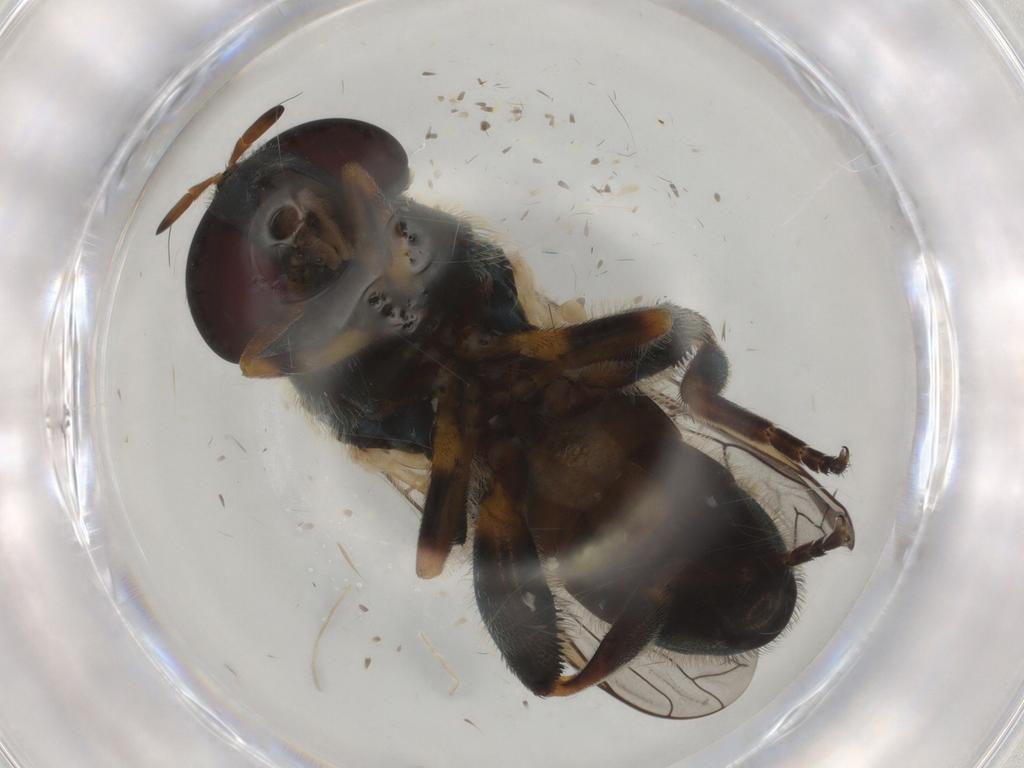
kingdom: Animalia
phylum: Arthropoda
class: Insecta
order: Diptera
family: Syrphidae
